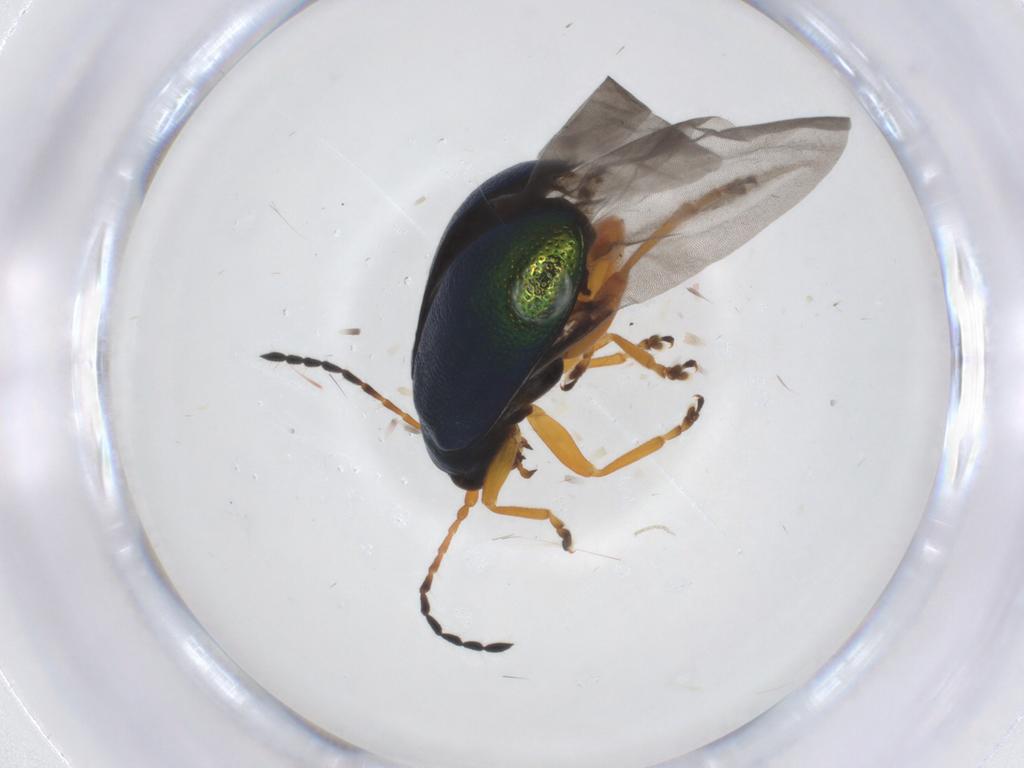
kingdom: Animalia
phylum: Arthropoda
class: Insecta
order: Coleoptera
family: Chrysomelidae
